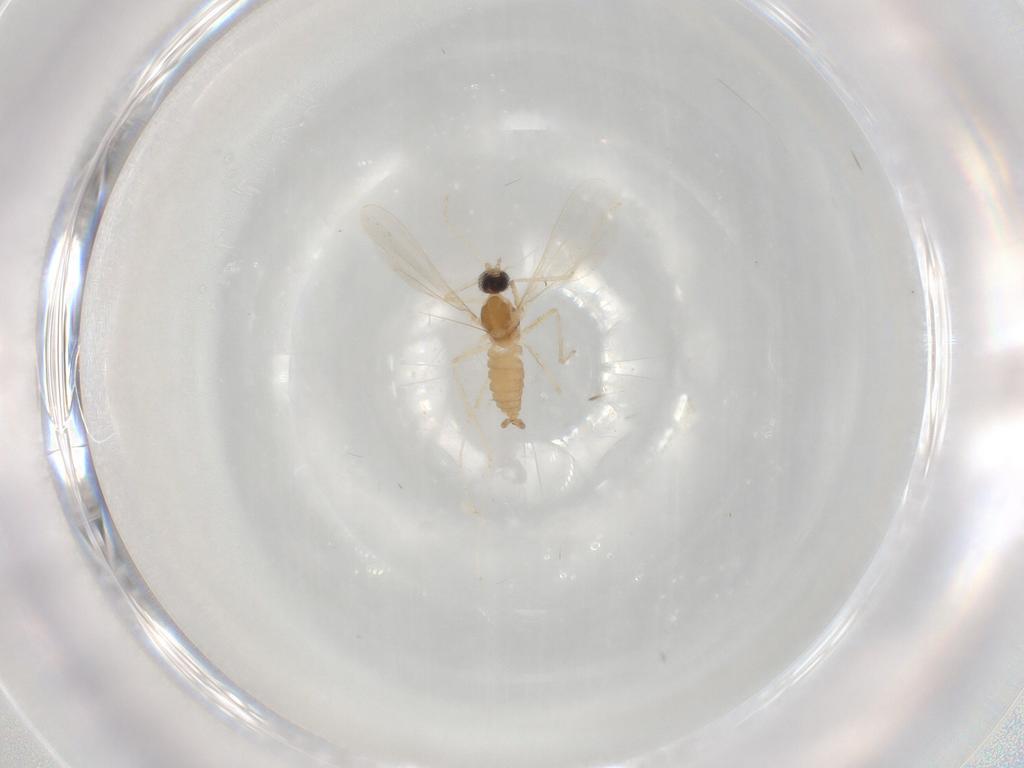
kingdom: Animalia
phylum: Arthropoda
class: Insecta
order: Diptera
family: Cecidomyiidae
